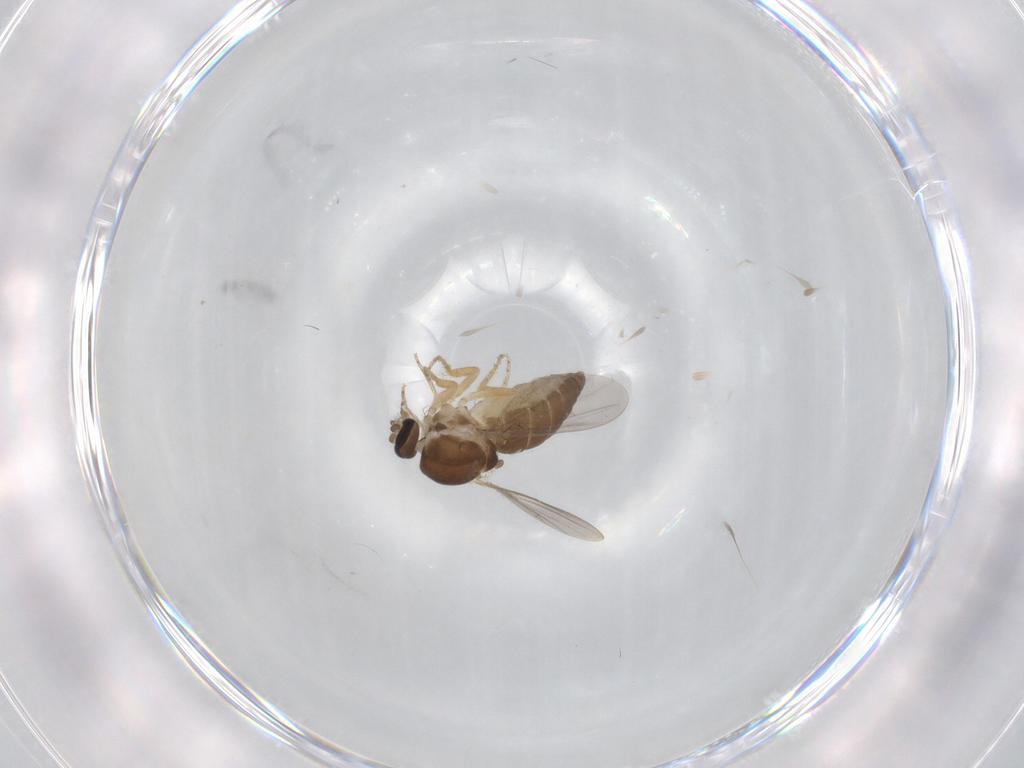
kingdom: Animalia
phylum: Arthropoda
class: Insecta
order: Diptera
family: Ceratopogonidae
